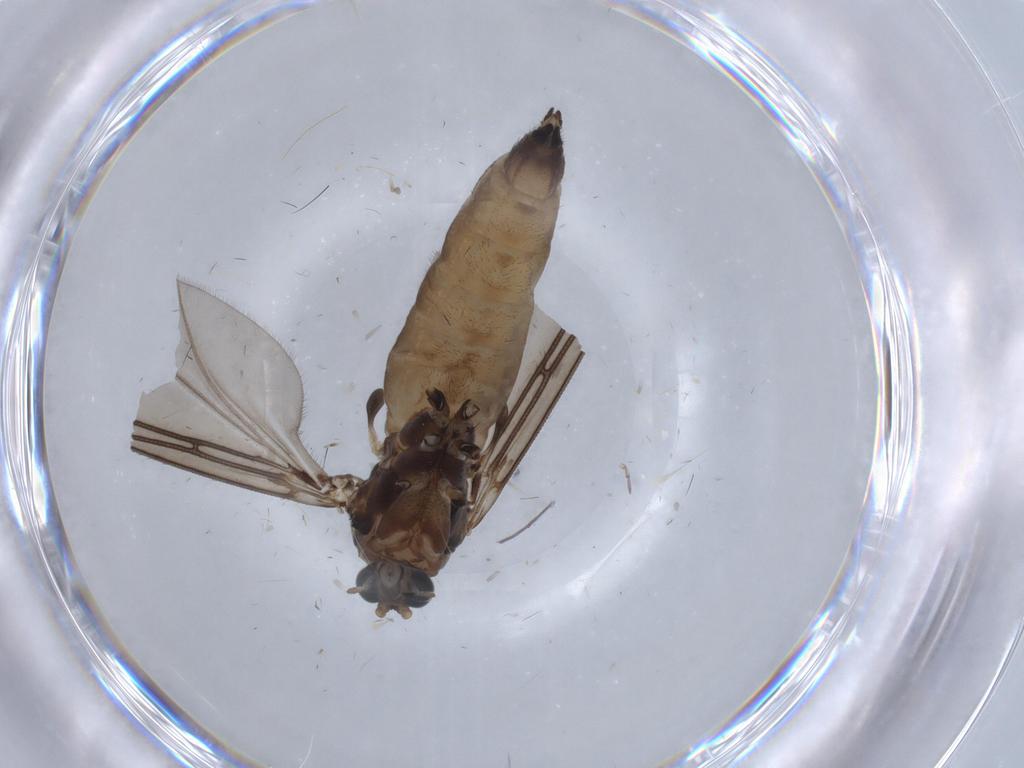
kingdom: Animalia
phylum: Arthropoda
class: Insecta
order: Diptera
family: Sciaridae
